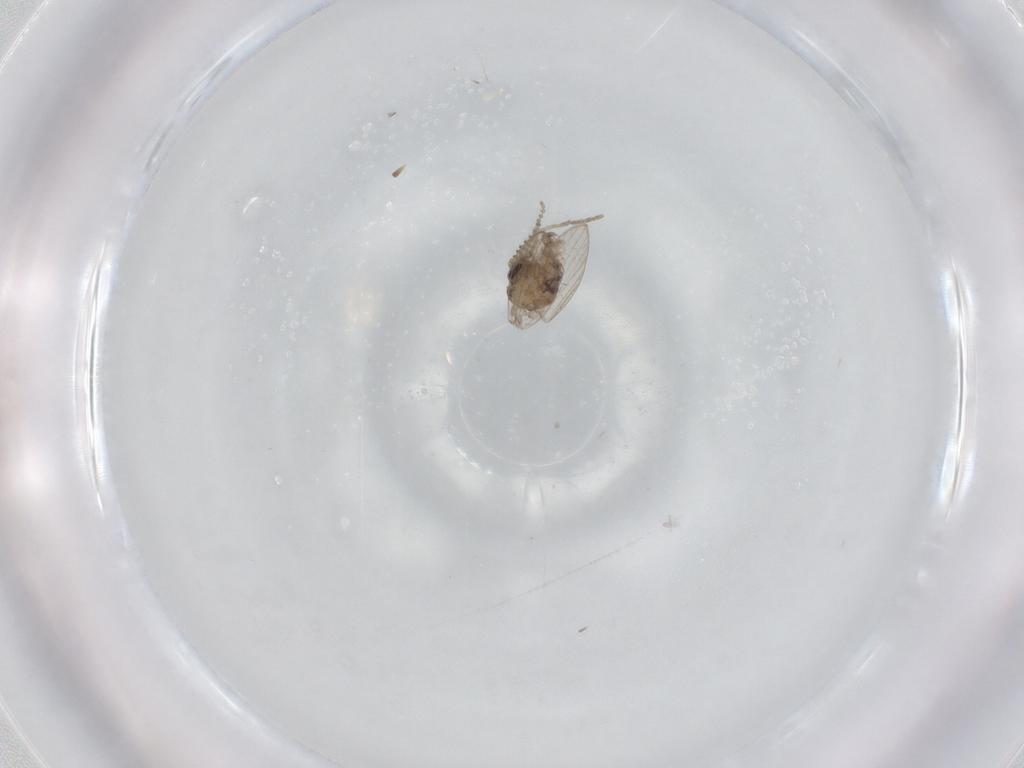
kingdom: Animalia
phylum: Arthropoda
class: Insecta
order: Diptera
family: Psychodidae
